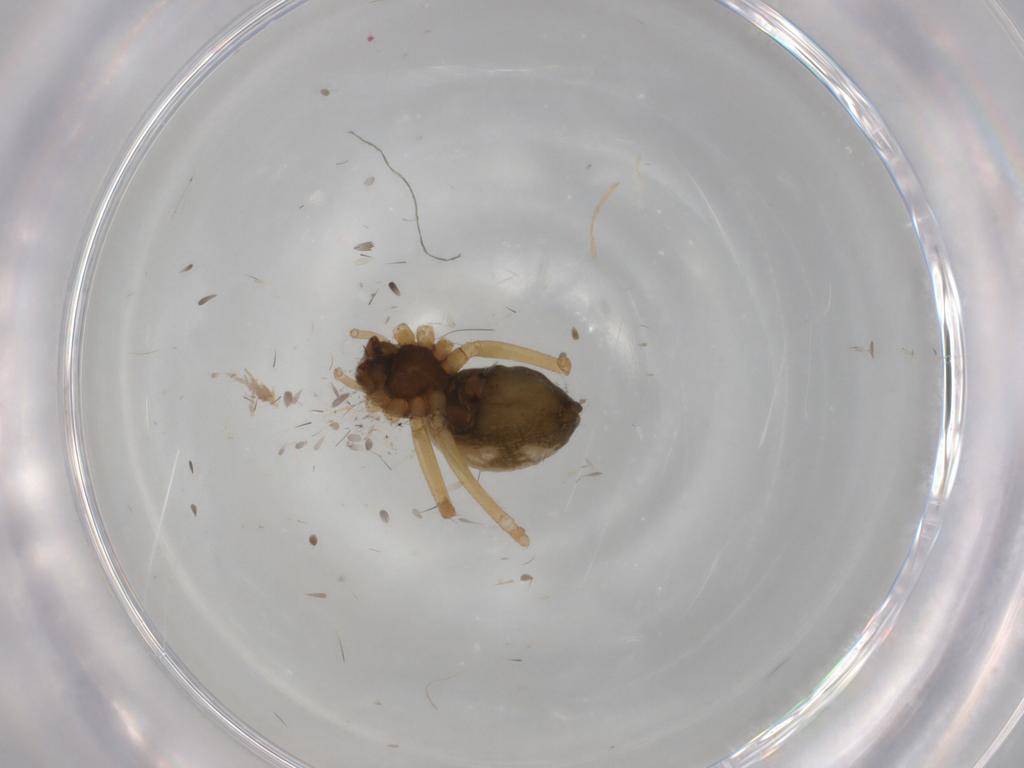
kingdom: Animalia
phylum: Arthropoda
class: Arachnida
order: Araneae
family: Linyphiidae
